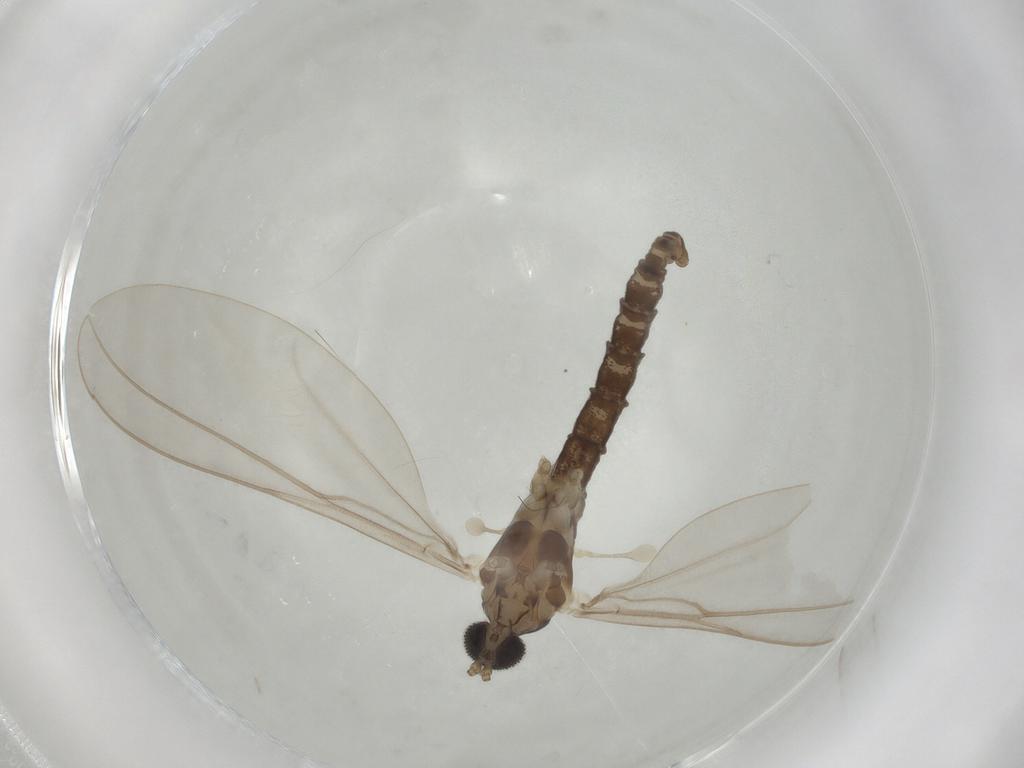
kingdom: Animalia
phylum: Arthropoda
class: Insecta
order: Diptera
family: Cecidomyiidae
